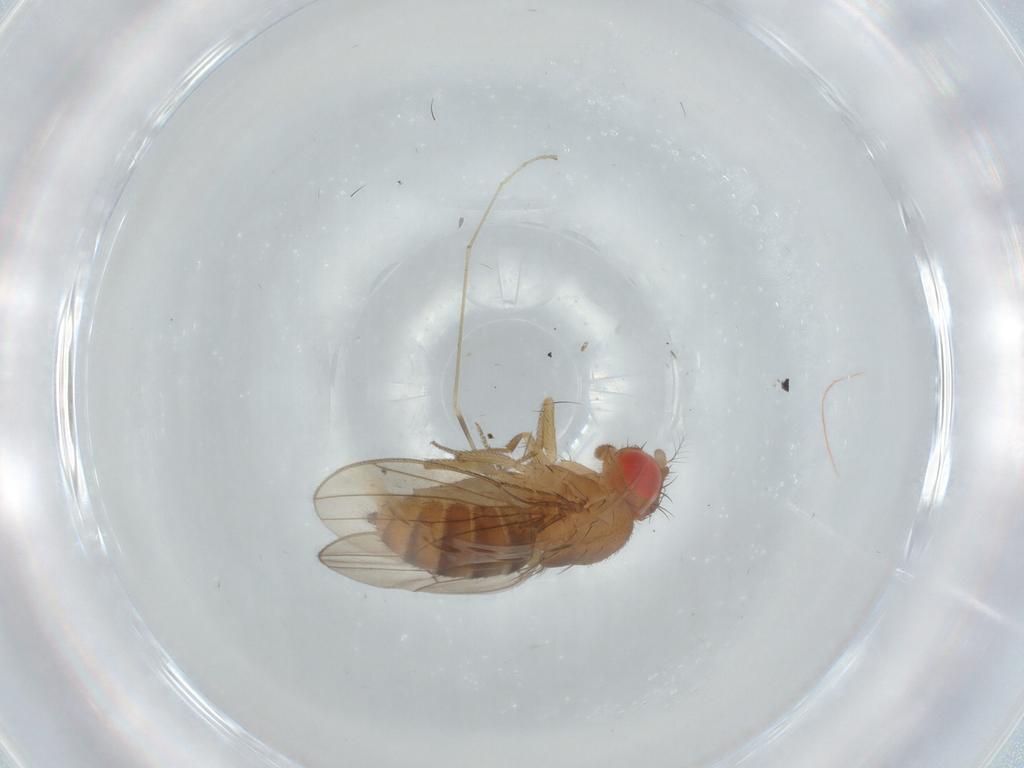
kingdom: Animalia
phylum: Arthropoda
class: Insecta
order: Diptera
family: Drosophilidae
